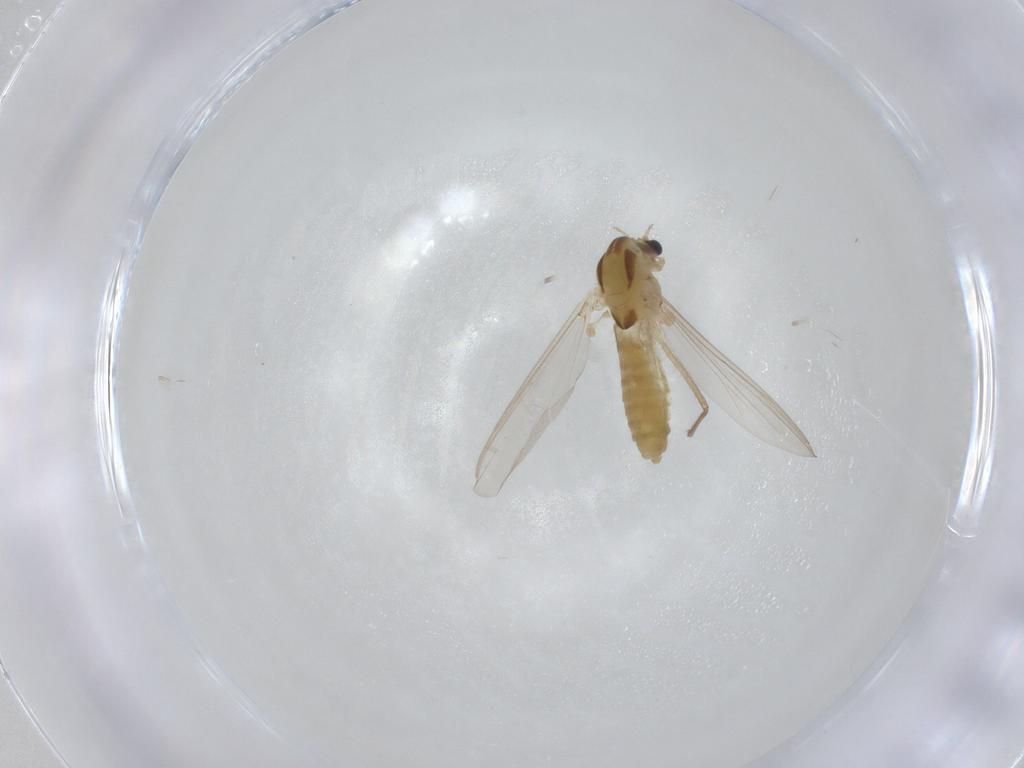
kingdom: Animalia
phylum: Arthropoda
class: Insecta
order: Diptera
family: Chironomidae
